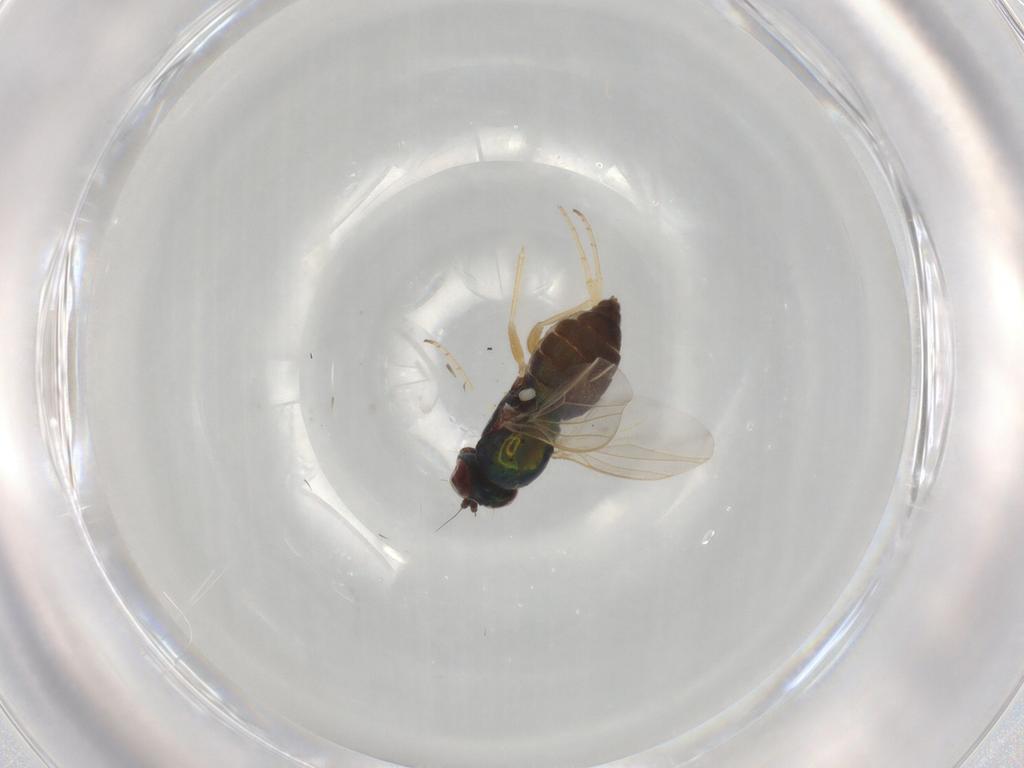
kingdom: Animalia
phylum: Arthropoda
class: Insecta
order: Diptera
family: Dolichopodidae
